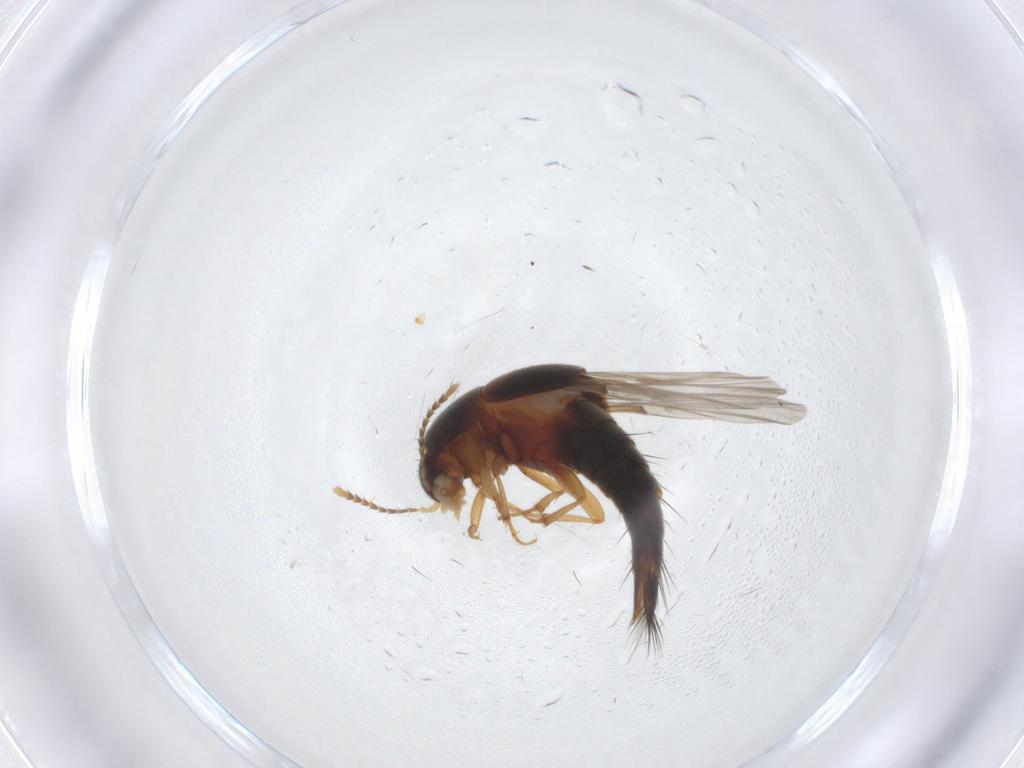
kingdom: Animalia
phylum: Arthropoda
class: Insecta
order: Coleoptera
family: Staphylinidae
